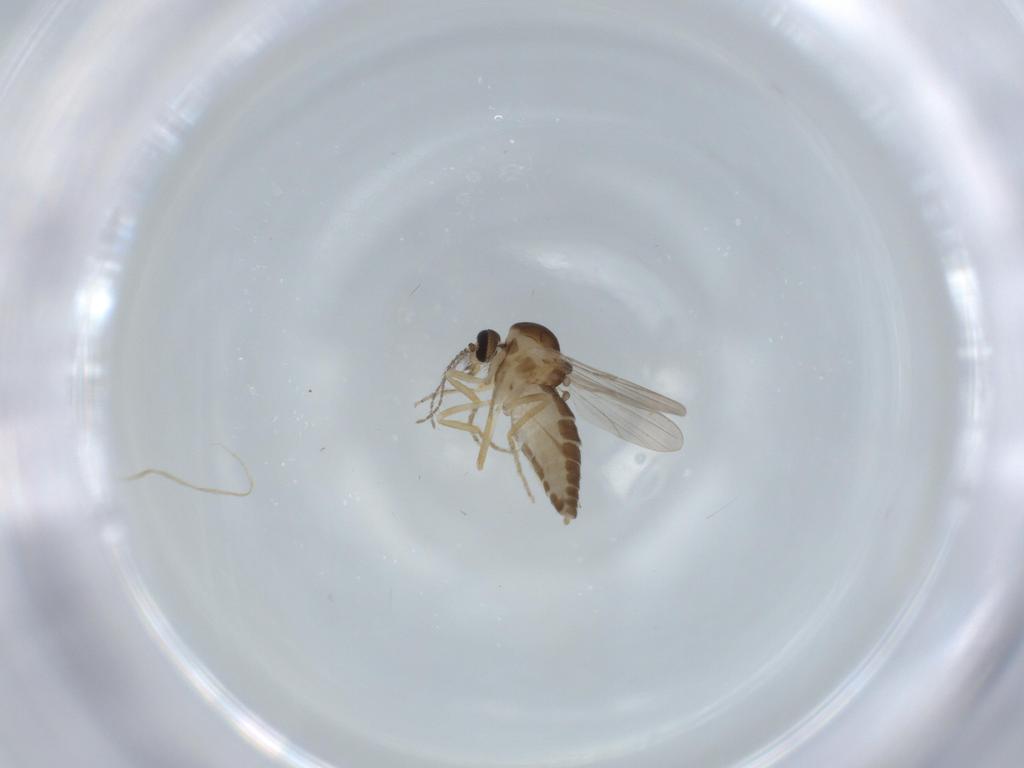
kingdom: Animalia
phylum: Arthropoda
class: Insecta
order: Diptera
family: Ceratopogonidae
